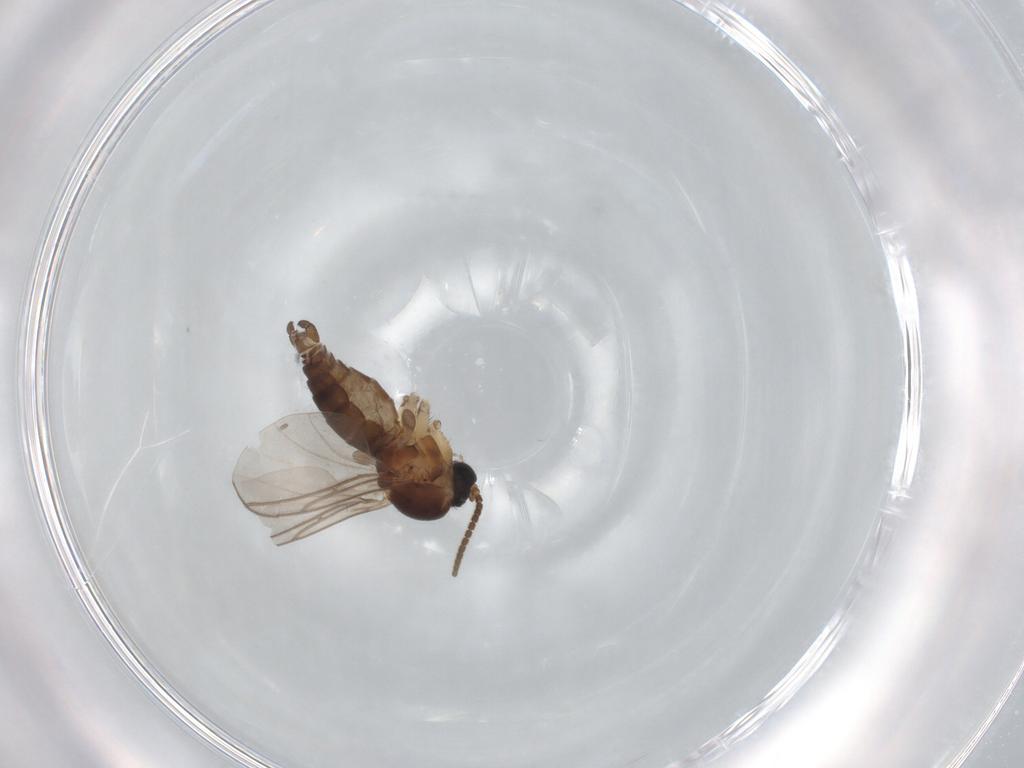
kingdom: Animalia
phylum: Arthropoda
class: Insecta
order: Diptera
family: Sciaridae
